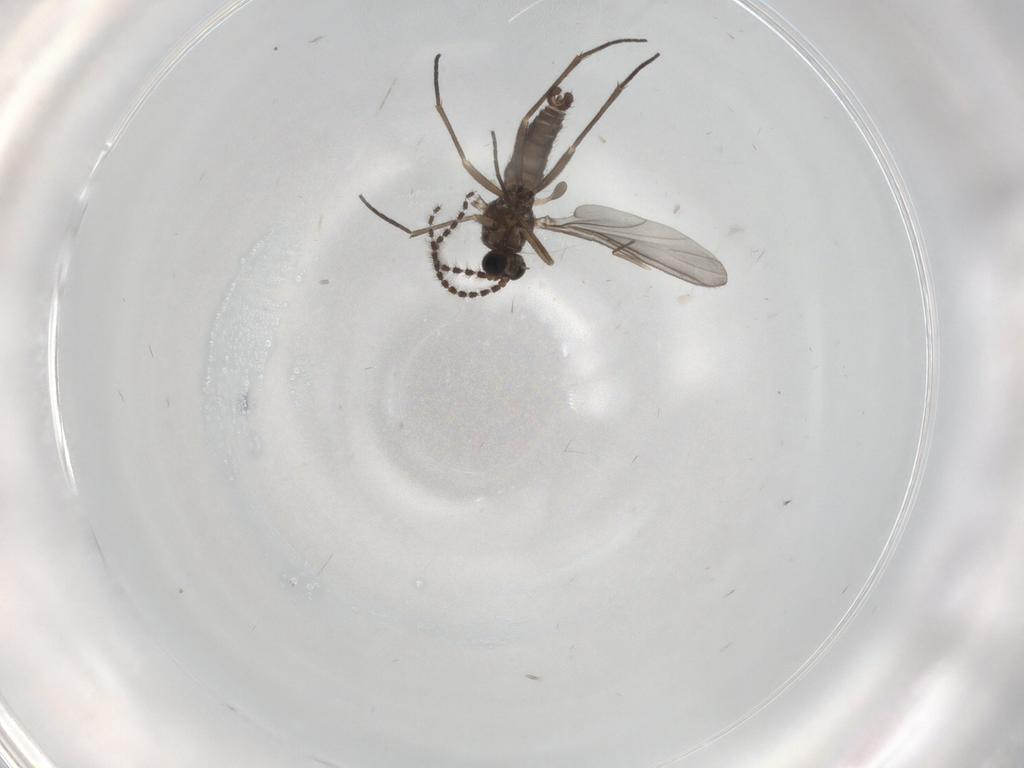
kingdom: Animalia
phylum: Arthropoda
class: Insecta
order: Diptera
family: Sciaridae
